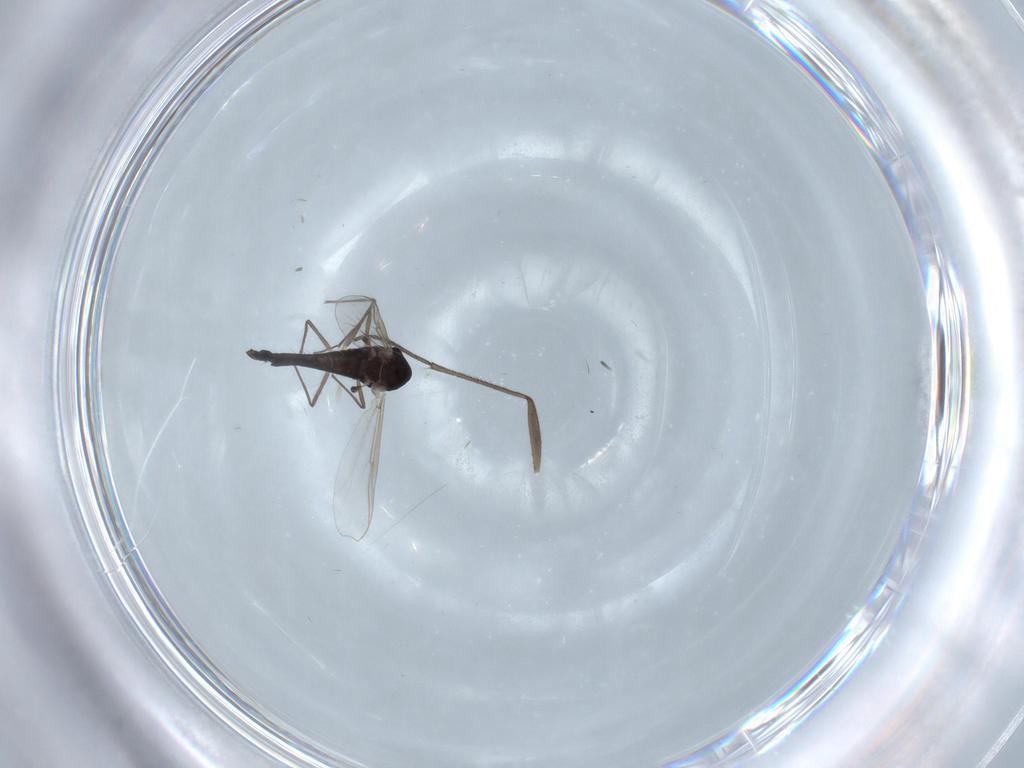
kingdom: Animalia
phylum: Arthropoda
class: Insecta
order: Diptera
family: Chironomidae
